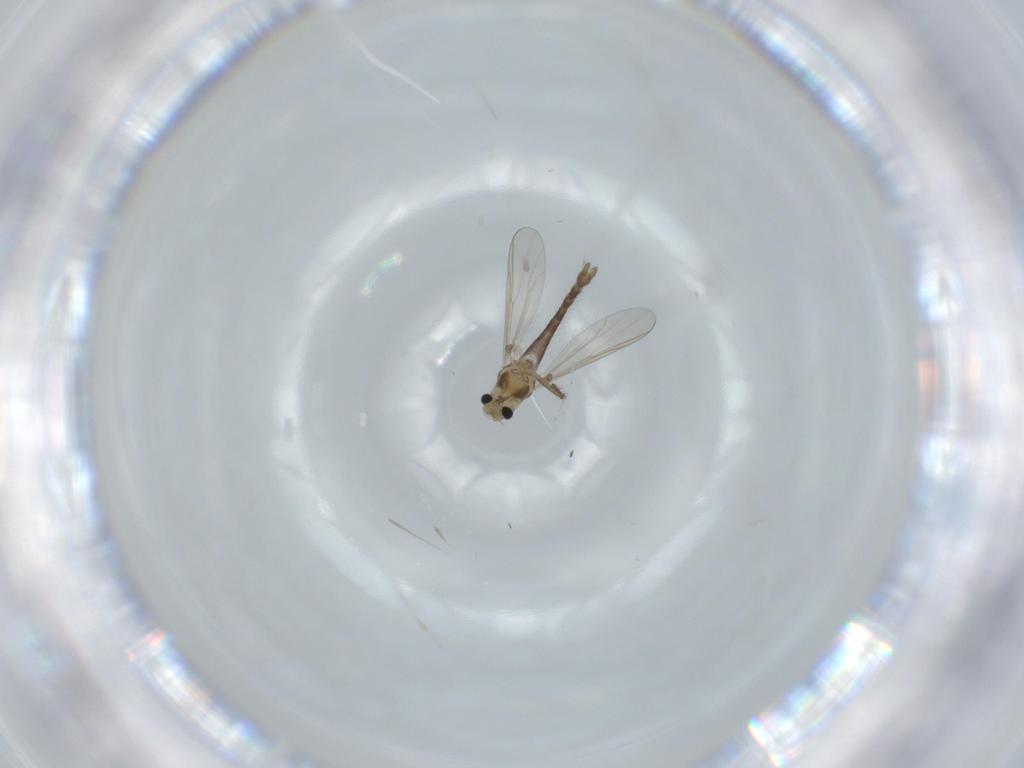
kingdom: Animalia
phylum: Arthropoda
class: Insecta
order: Diptera
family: Chironomidae
